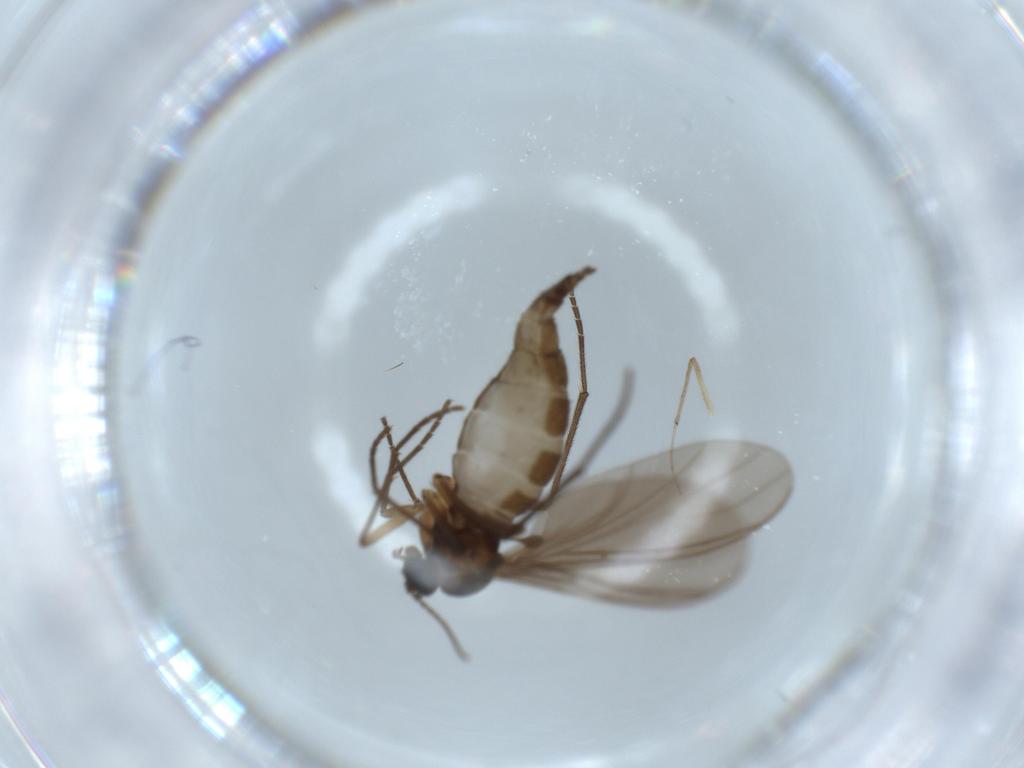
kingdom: Animalia
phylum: Arthropoda
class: Insecta
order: Diptera
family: Sciaridae
